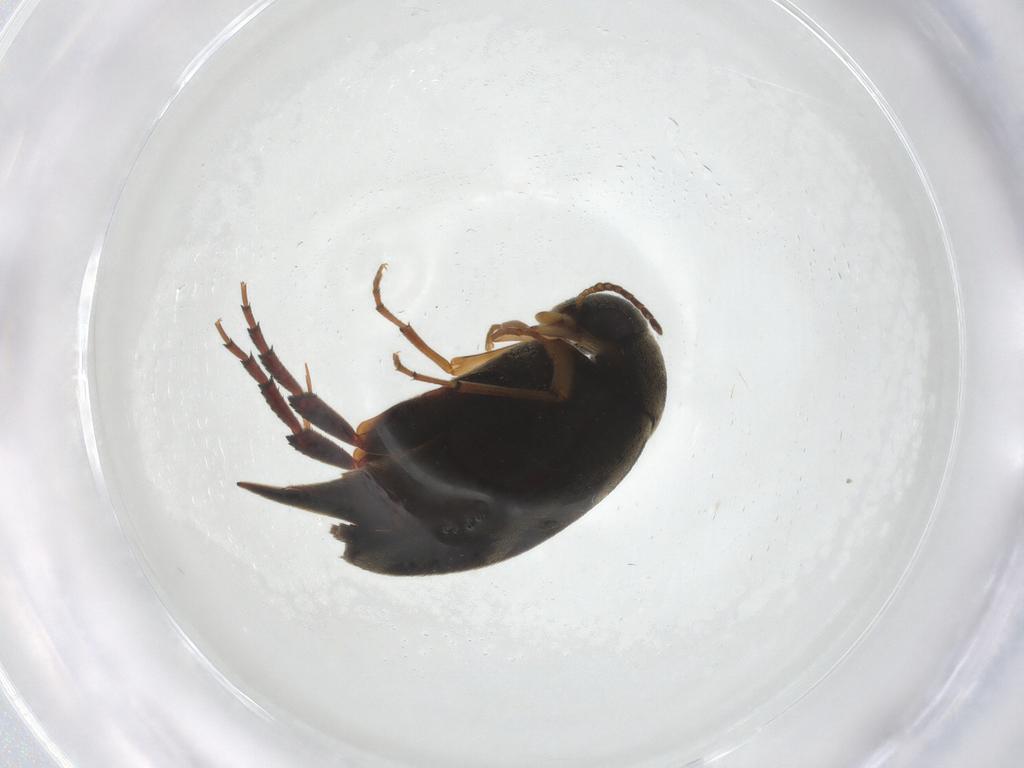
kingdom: Animalia
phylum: Arthropoda
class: Insecta
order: Coleoptera
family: Mordellidae
